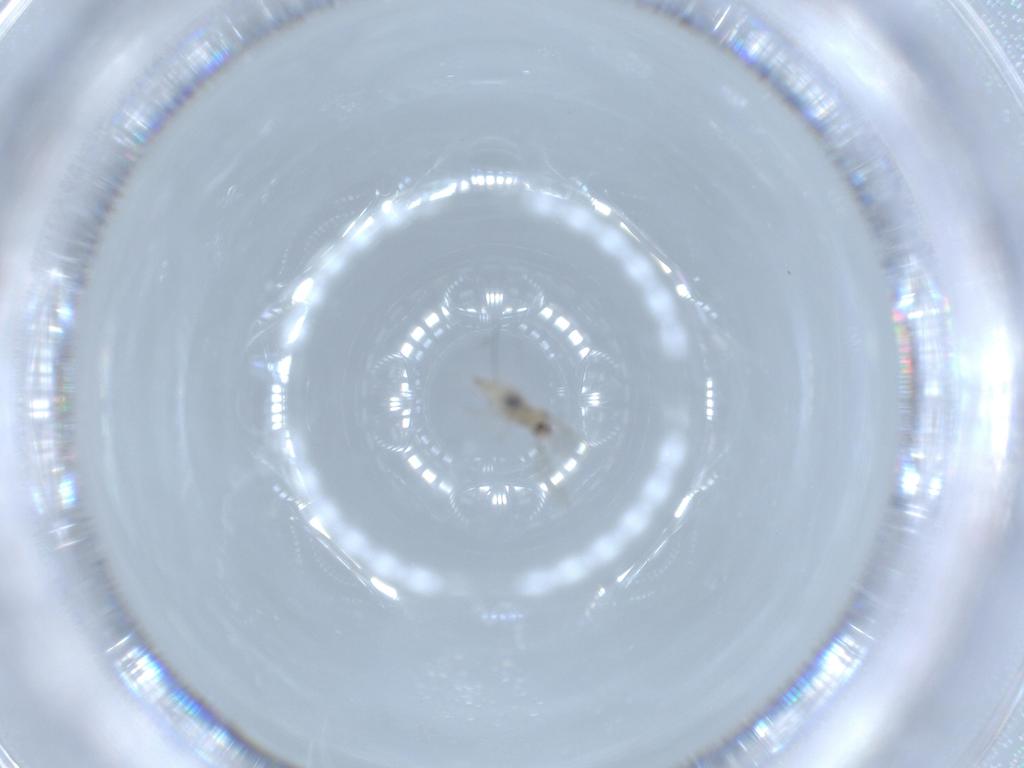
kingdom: Animalia
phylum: Arthropoda
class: Insecta
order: Diptera
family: Cecidomyiidae
